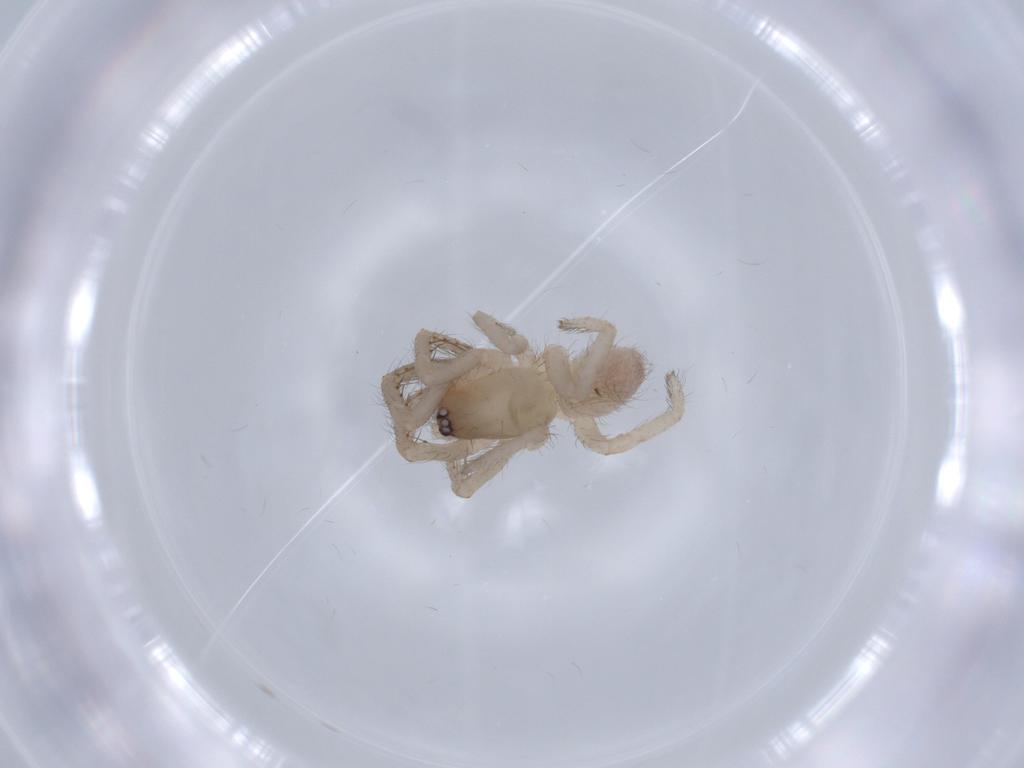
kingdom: Animalia
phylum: Arthropoda
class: Arachnida
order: Araneae
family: Segestriidae
